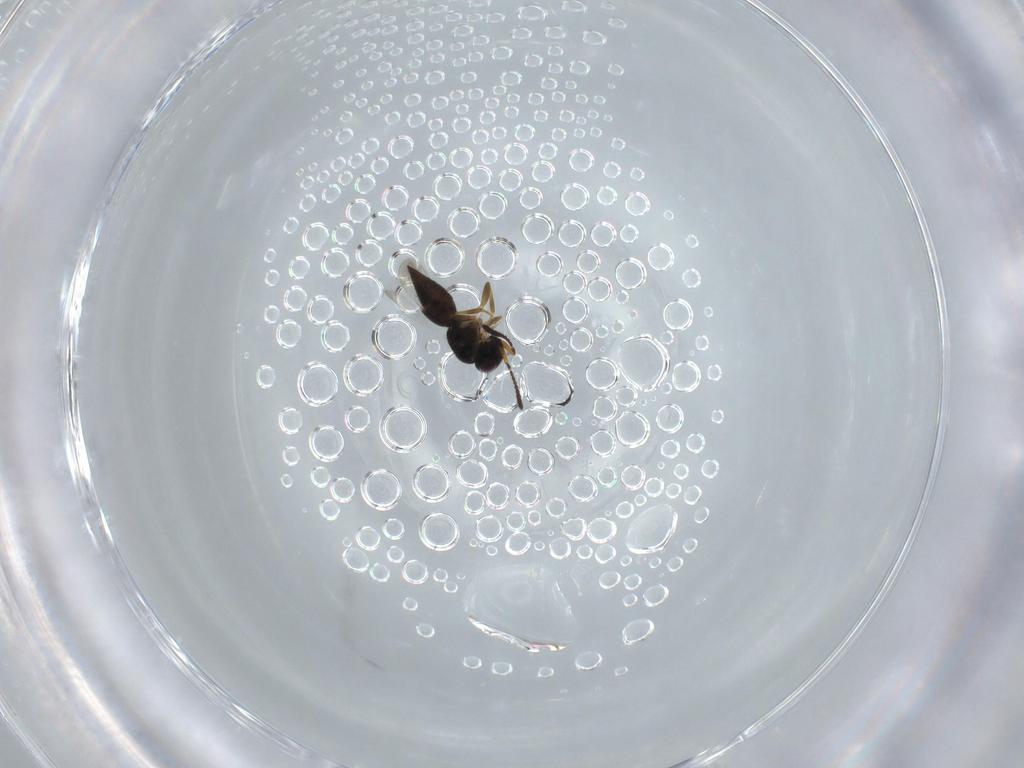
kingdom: Animalia
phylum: Arthropoda
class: Insecta
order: Hymenoptera
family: Ceraphronidae
